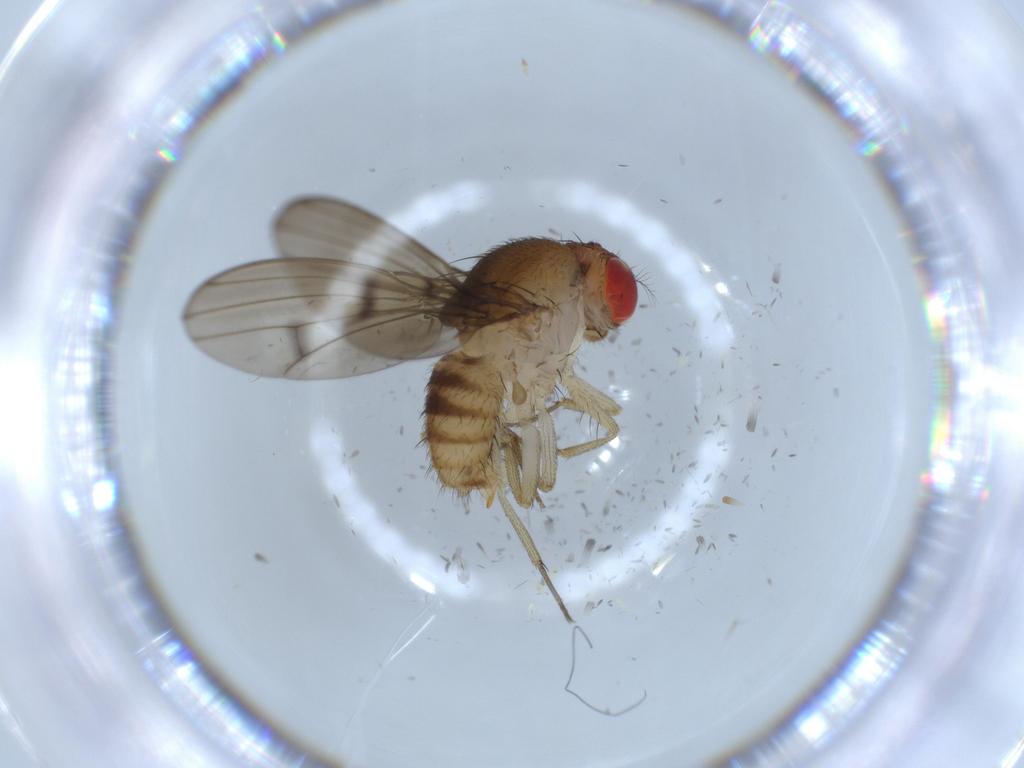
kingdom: Animalia
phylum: Arthropoda
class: Insecta
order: Diptera
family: Drosophilidae
